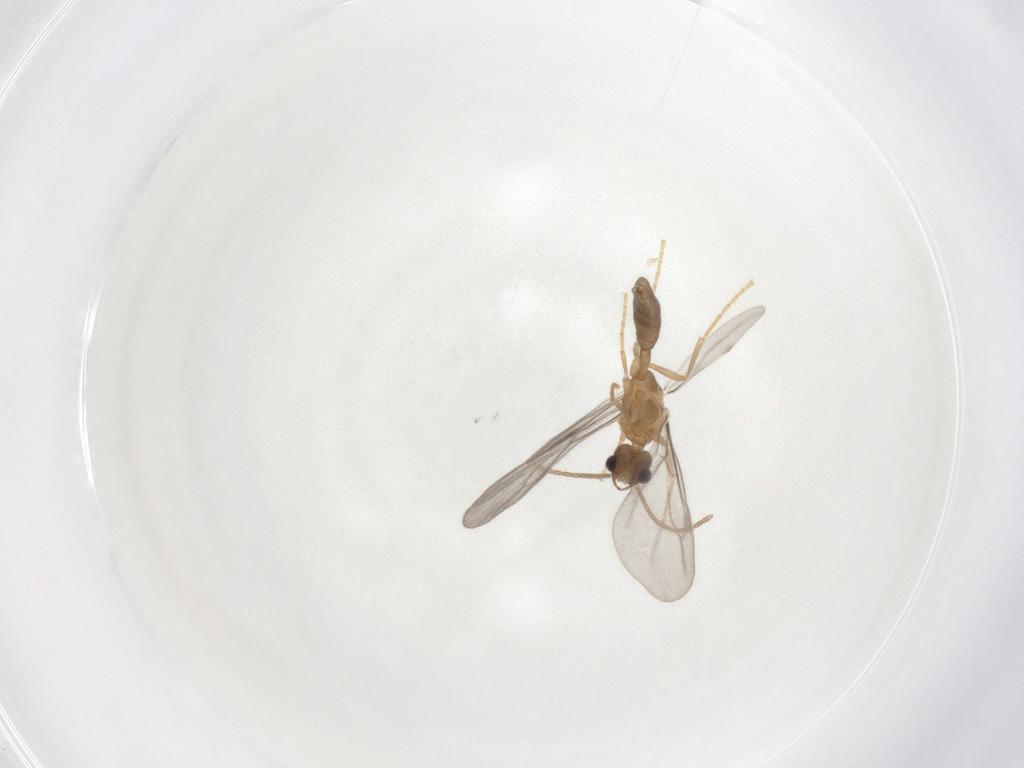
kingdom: Animalia
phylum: Arthropoda
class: Insecta
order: Hymenoptera
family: Formicidae
